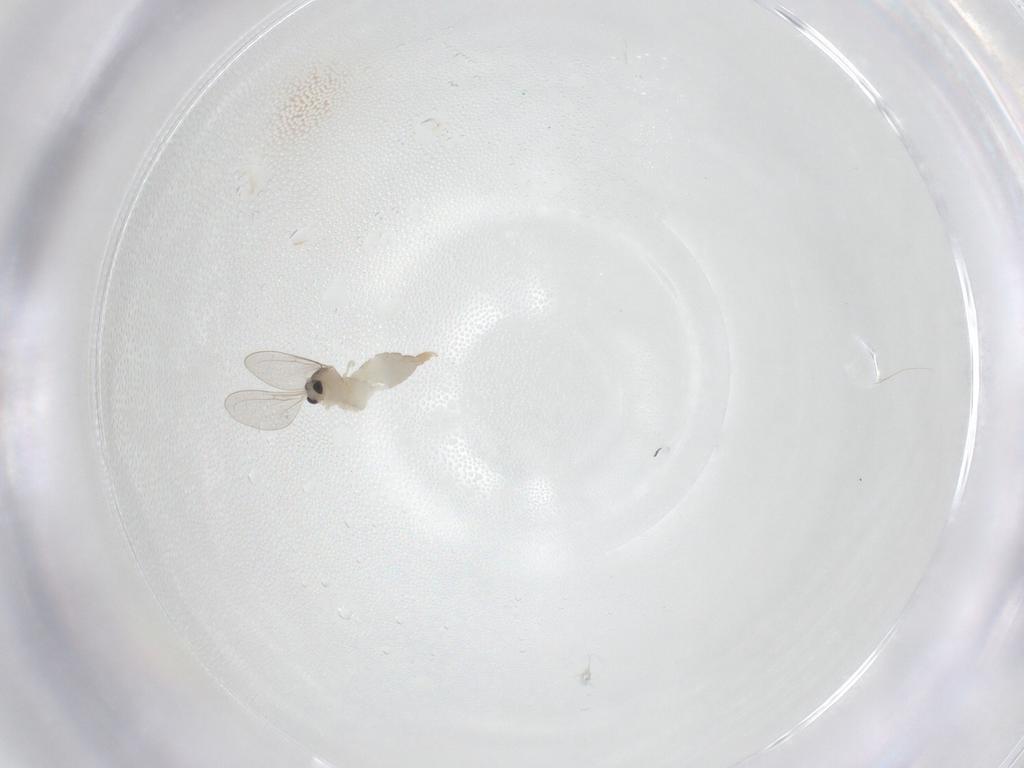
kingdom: Animalia
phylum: Arthropoda
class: Insecta
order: Diptera
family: Cecidomyiidae
